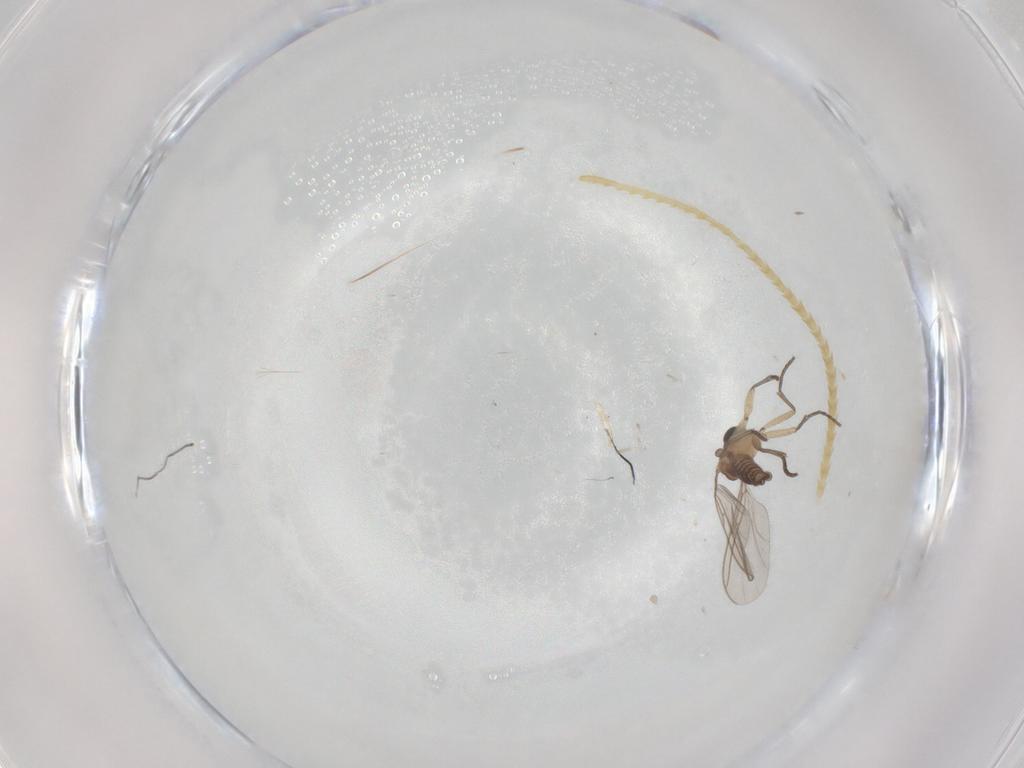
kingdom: Animalia
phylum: Arthropoda
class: Insecta
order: Diptera
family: Sciaridae
